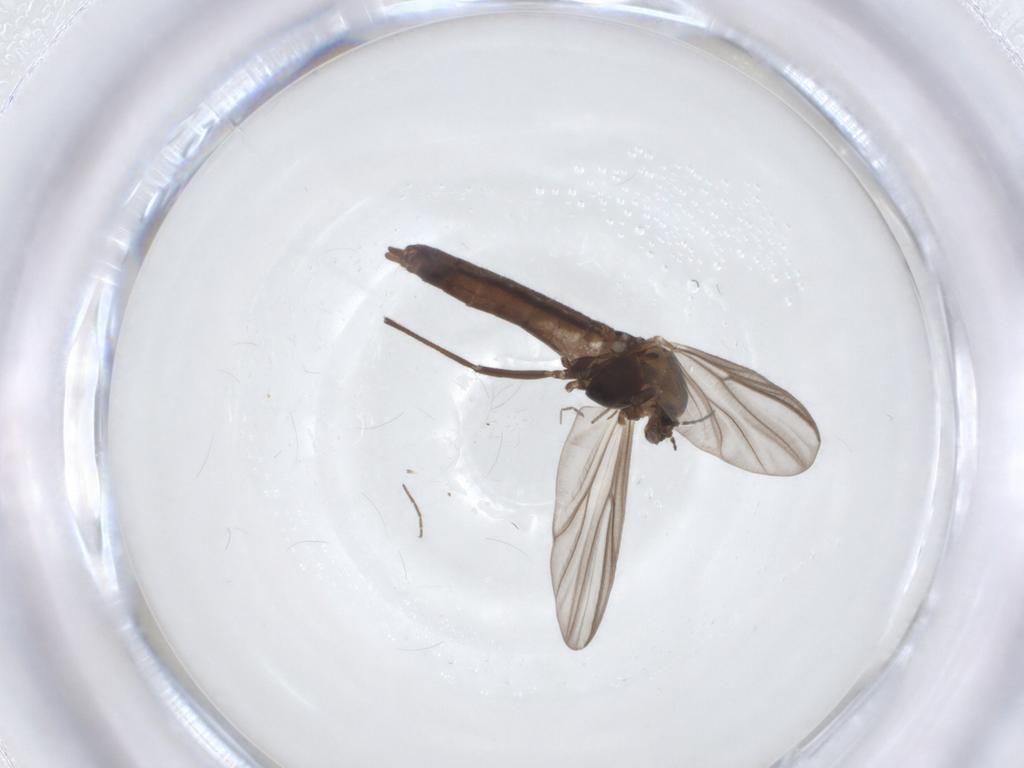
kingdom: Animalia
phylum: Arthropoda
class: Insecta
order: Diptera
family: Chironomidae
